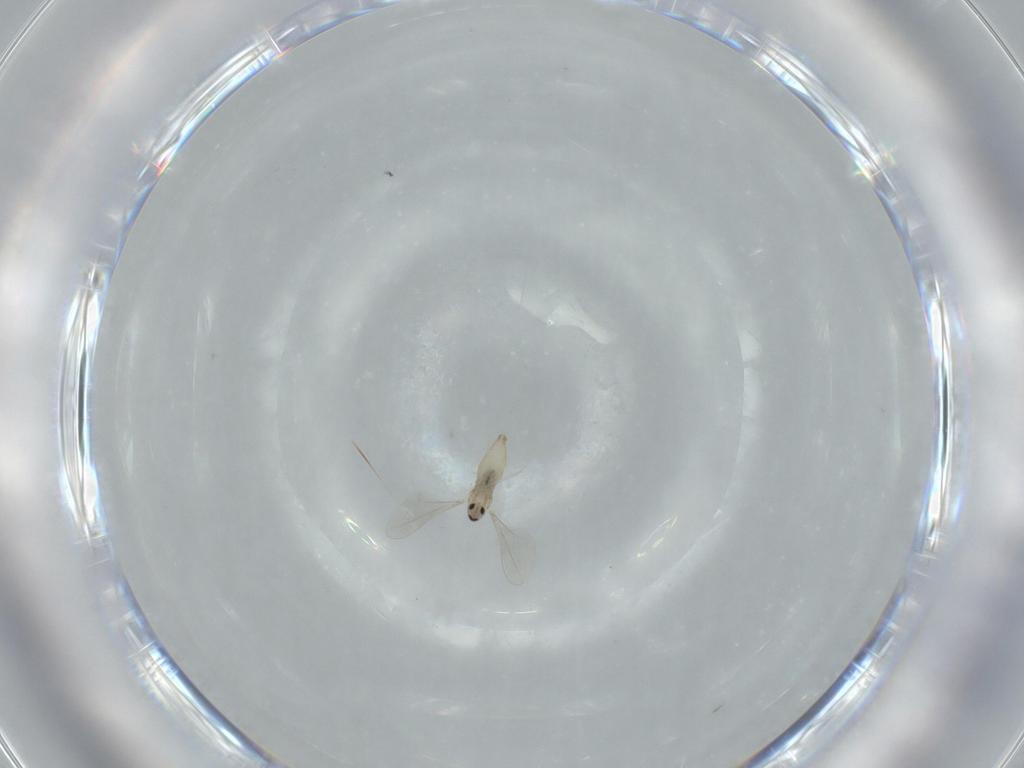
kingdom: Animalia
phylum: Arthropoda
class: Insecta
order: Diptera
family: Cecidomyiidae
